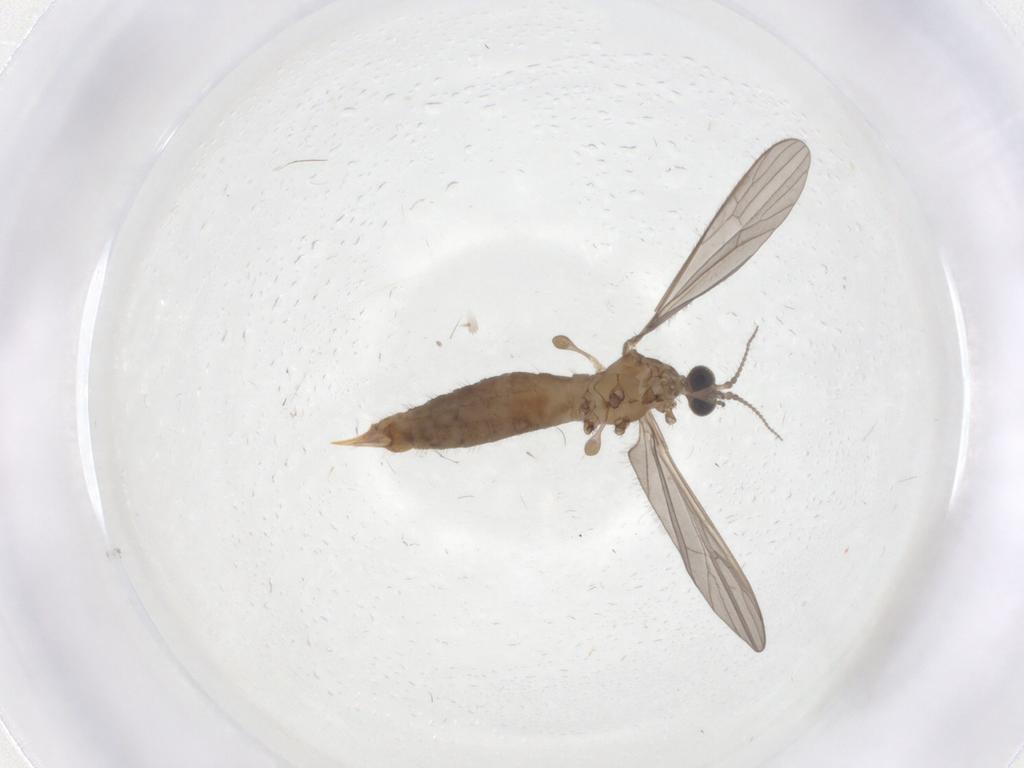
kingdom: Animalia
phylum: Arthropoda
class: Insecta
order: Diptera
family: Limoniidae
